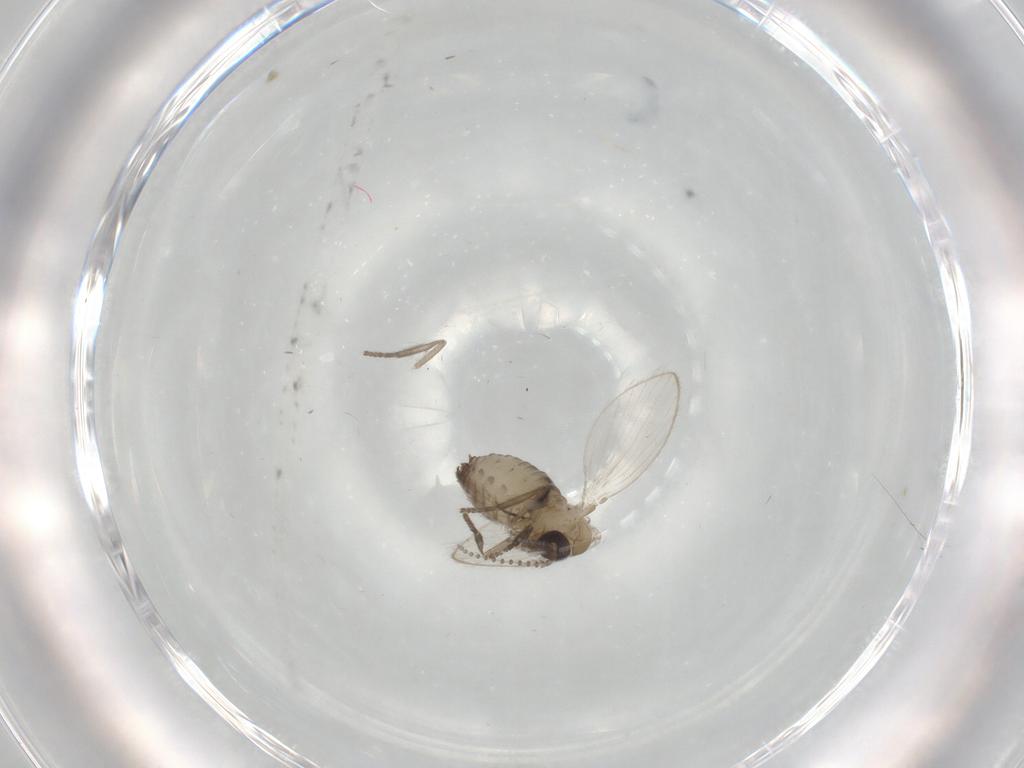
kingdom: Animalia
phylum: Arthropoda
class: Insecta
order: Diptera
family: Psychodidae
